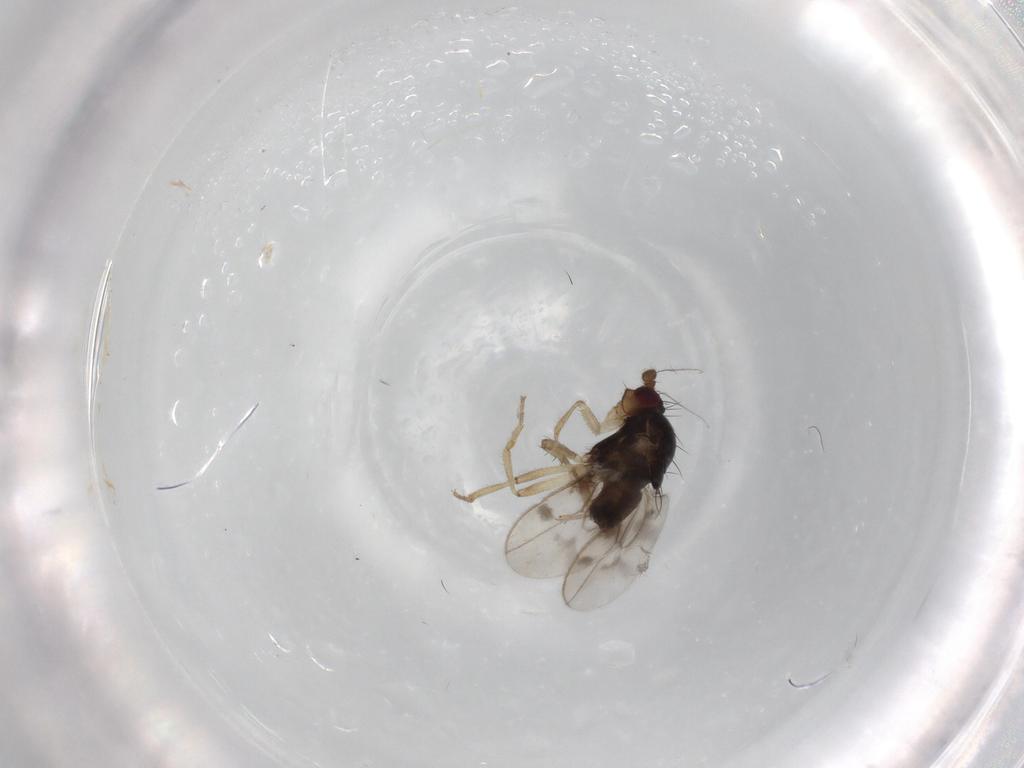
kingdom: Animalia
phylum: Arthropoda
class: Insecta
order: Diptera
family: Sphaeroceridae
